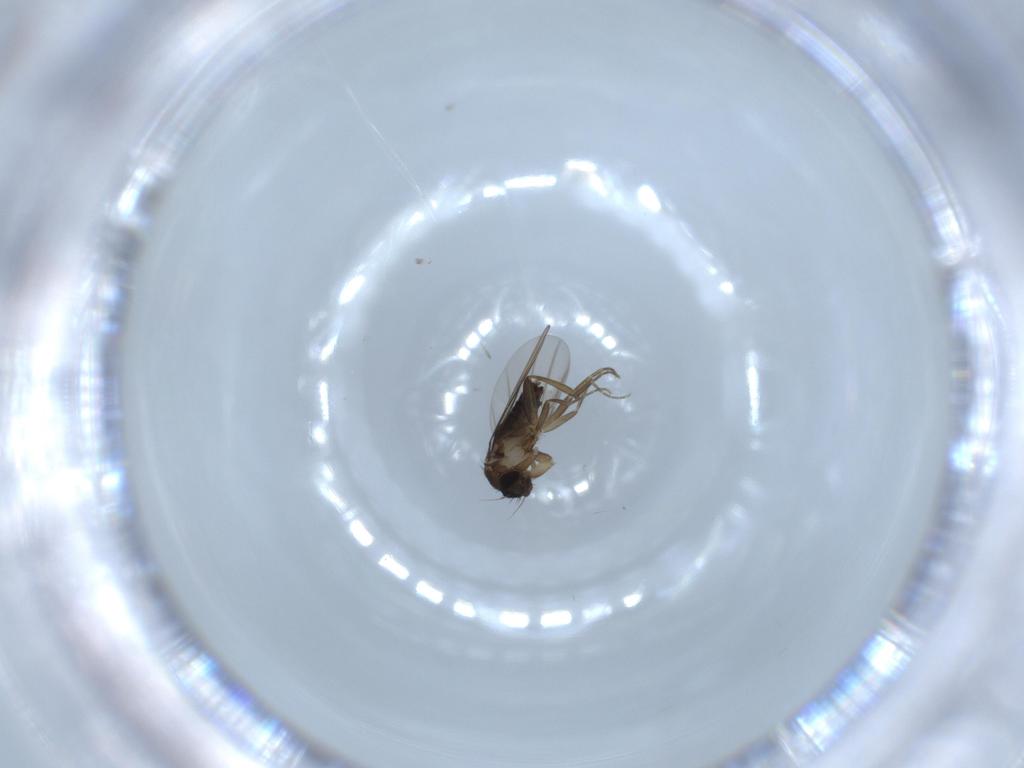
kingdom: Animalia
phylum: Arthropoda
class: Insecta
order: Diptera
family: Phoridae
